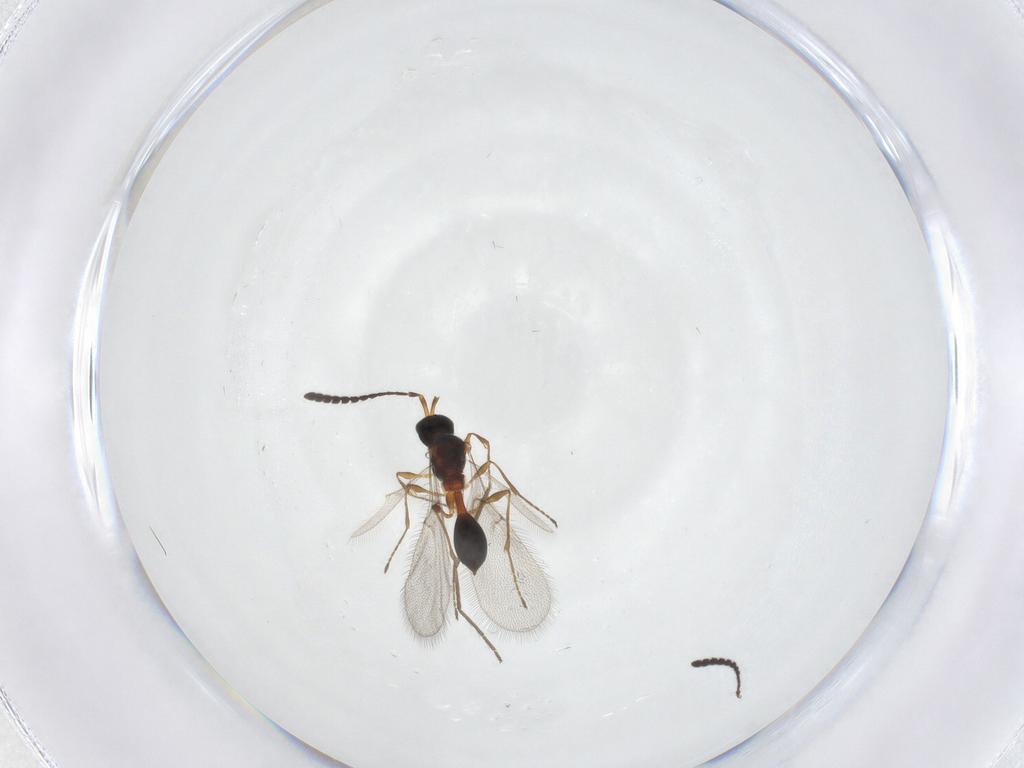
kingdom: Animalia
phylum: Arthropoda
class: Insecta
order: Hymenoptera
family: Diapriidae
